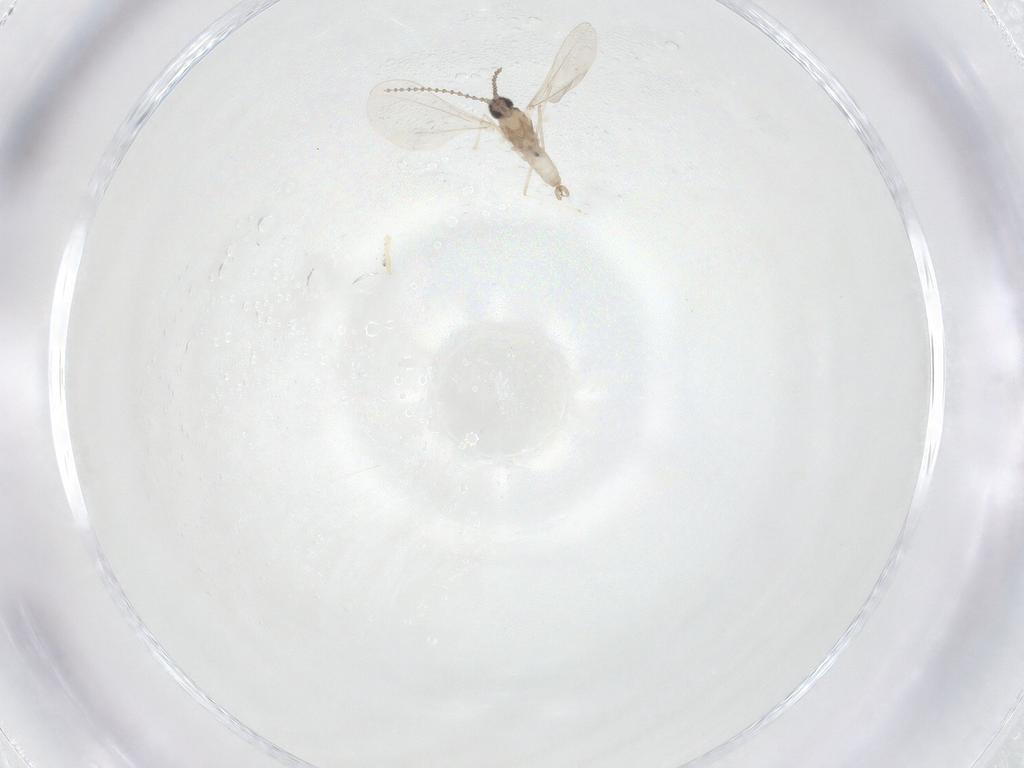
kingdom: Animalia
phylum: Arthropoda
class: Insecta
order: Diptera
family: Cecidomyiidae
